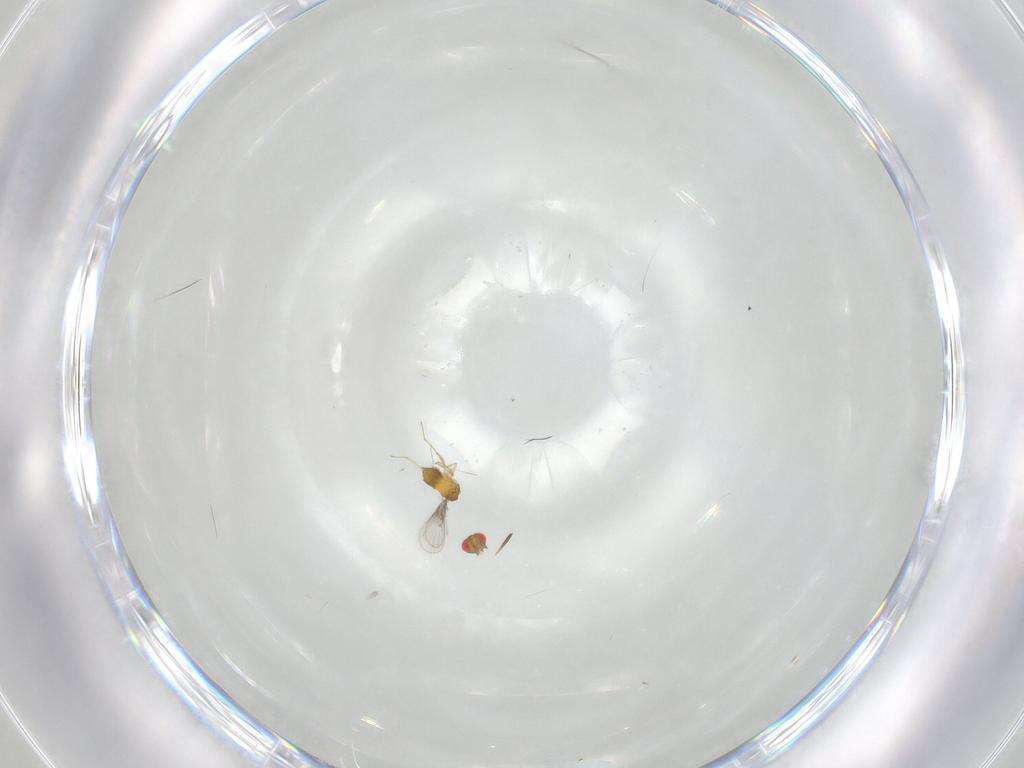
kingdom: Animalia
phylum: Arthropoda
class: Insecta
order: Hymenoptera
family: Trichogrammatidae
